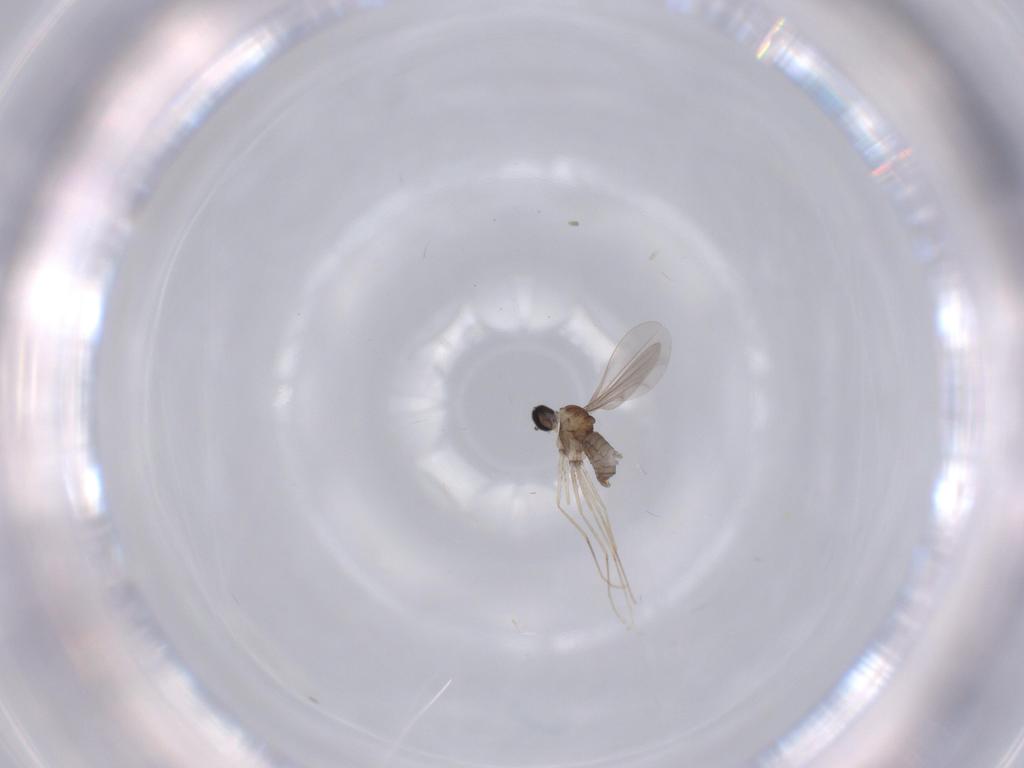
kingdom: Animalia
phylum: Arthropoda
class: Insecta
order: Diptera
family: Cecidomyiidae
